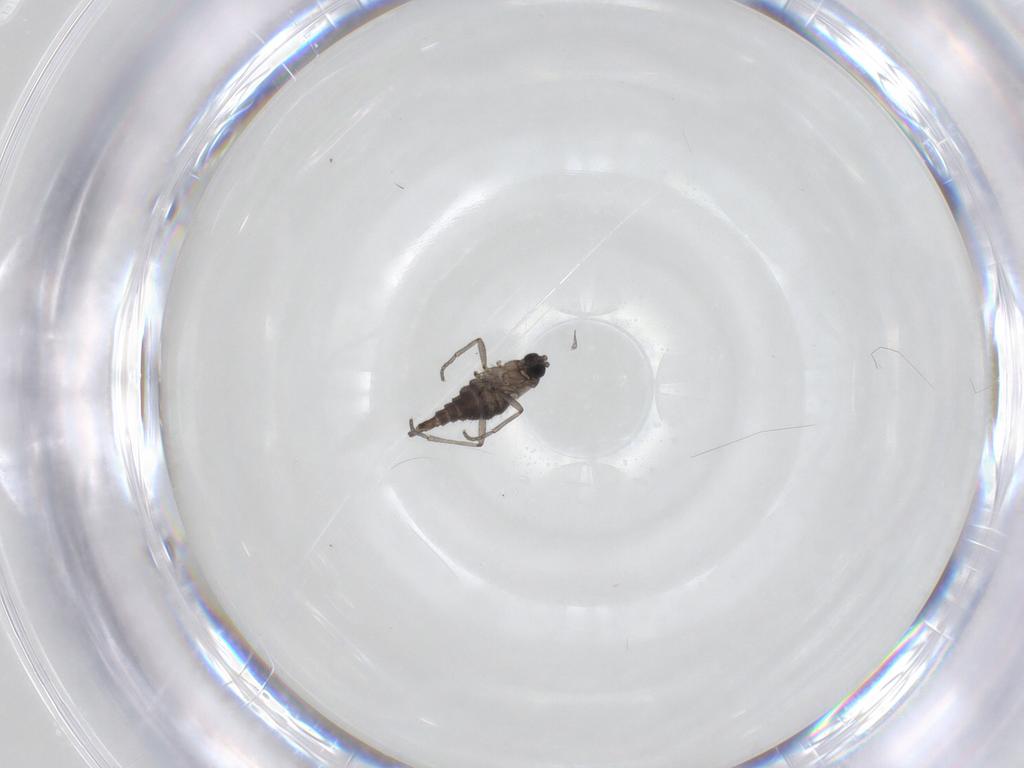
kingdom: Animalia
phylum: Arthropoda
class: Insecta
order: Diptera
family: Sciaridae
